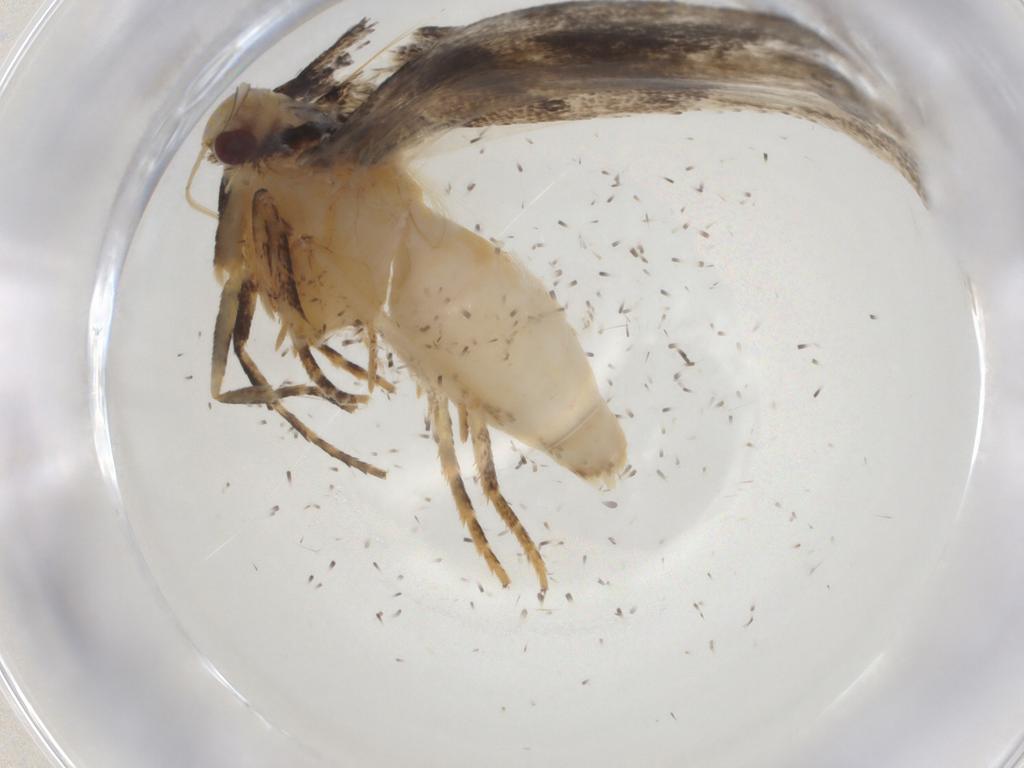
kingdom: Animalia
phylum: Arthropoda
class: Insecta
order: Lepidoptera
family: Gelechiidae
